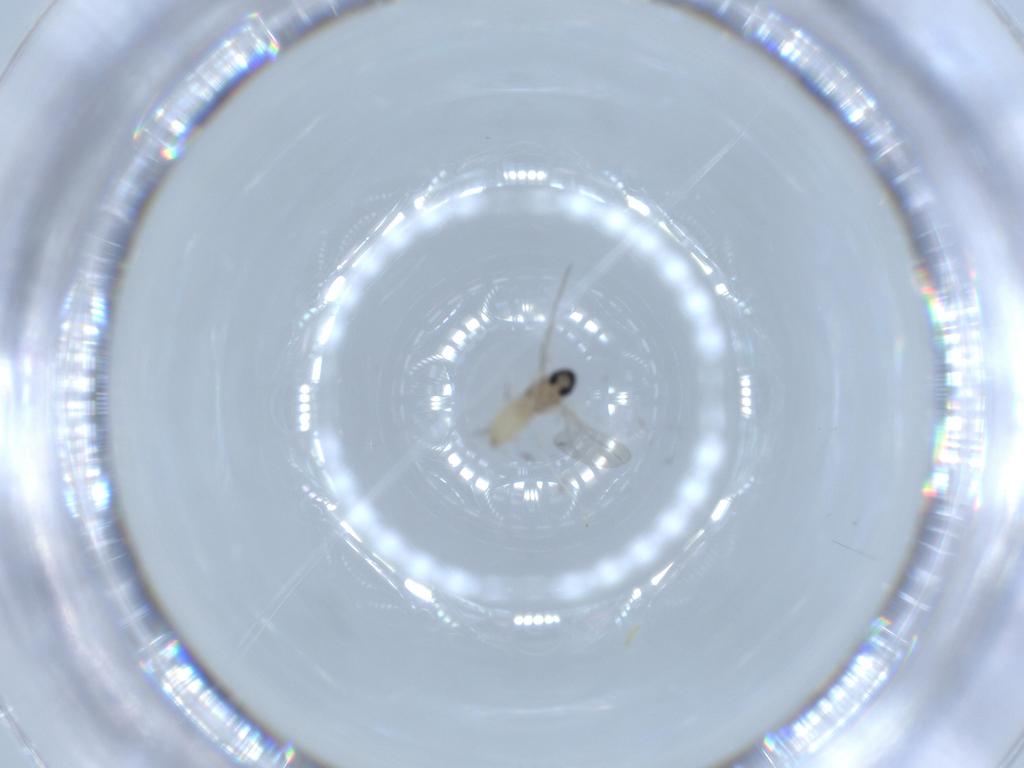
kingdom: Animalia
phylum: Arthropoda
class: Insecta
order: Diptera
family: Cecidomyiidae
